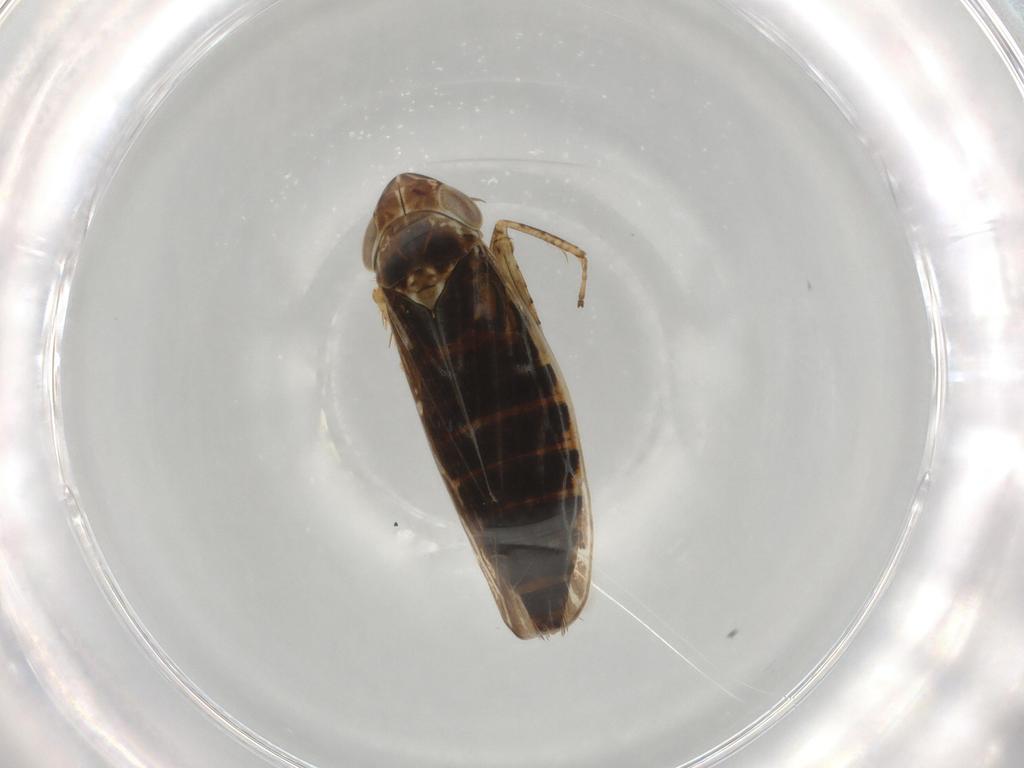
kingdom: Animalia
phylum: Arthropoda
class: Insecta
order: Hemiptera
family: Cicadellidae
